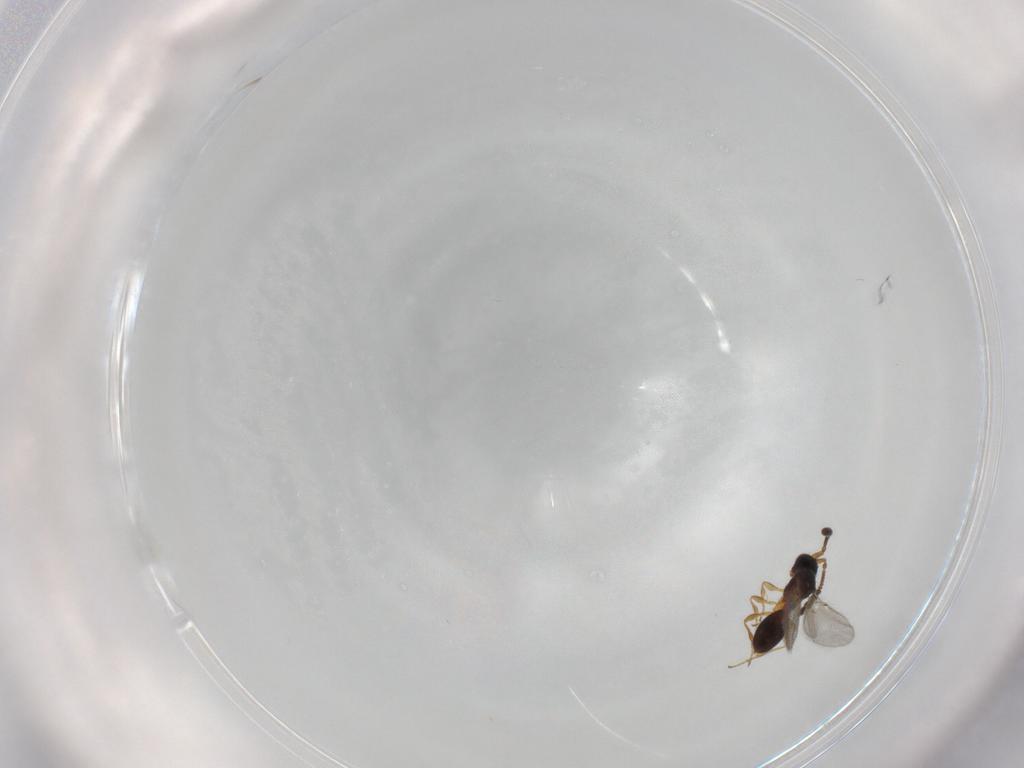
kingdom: Animalia
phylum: Arthropoda
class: Insecta
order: Hymenoptera
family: Diapriidae
